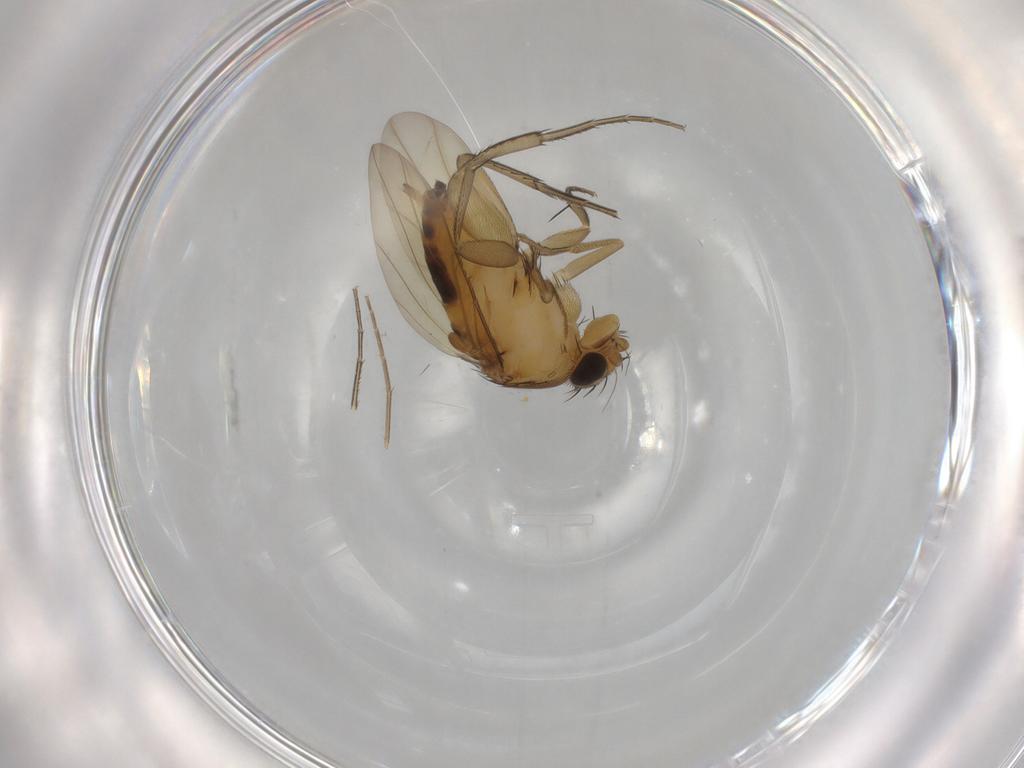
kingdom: Animalia
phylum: Arthropoda
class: Insecta
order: Diptera
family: Phoridae
